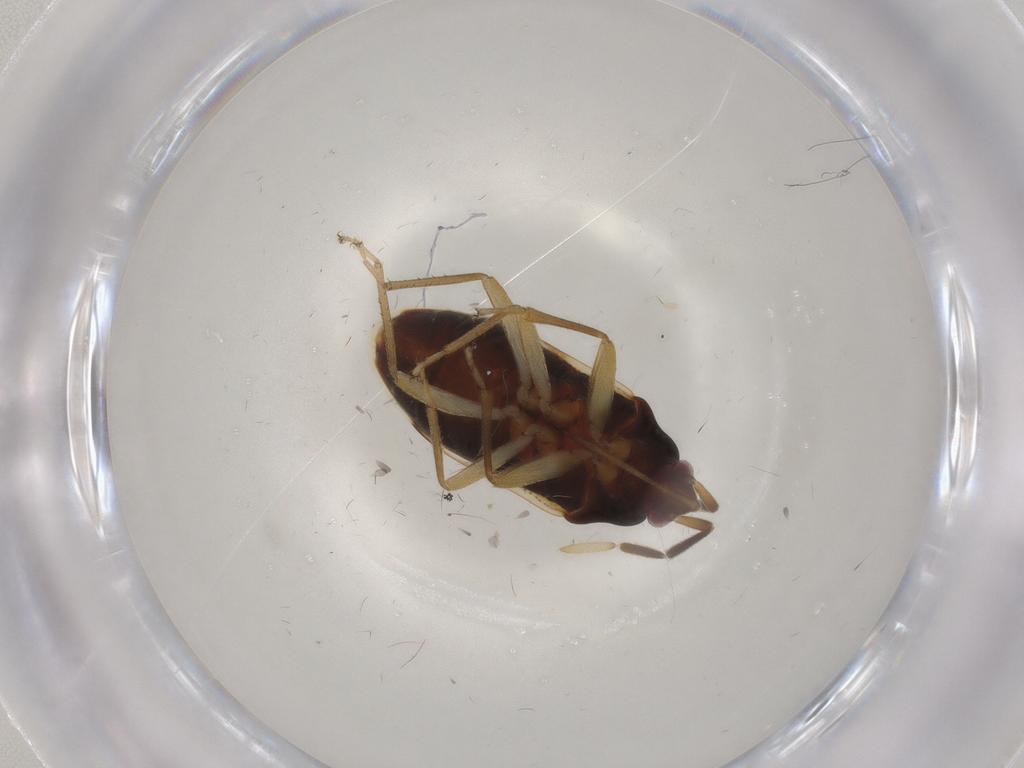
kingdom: Animalia
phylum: Arthropoda
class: Insecta
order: Hemiptera
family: Rhyparochromidae
